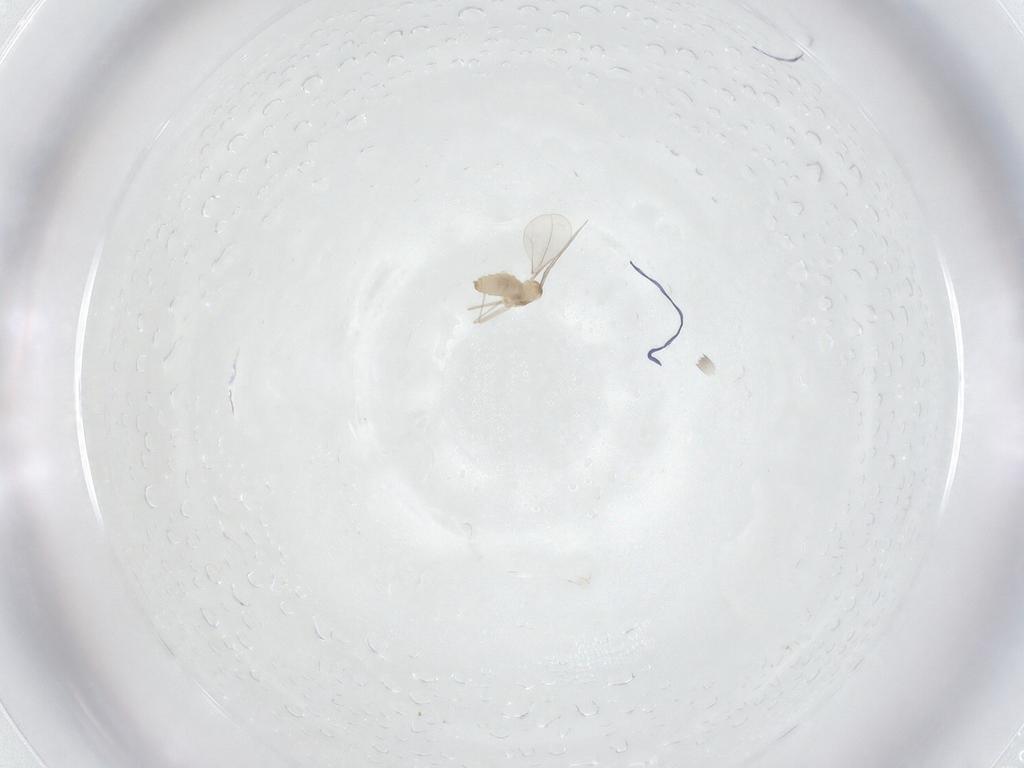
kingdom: Animalia
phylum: Arthropoda
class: Insecta
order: Diptera
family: Cecidomyiidae
